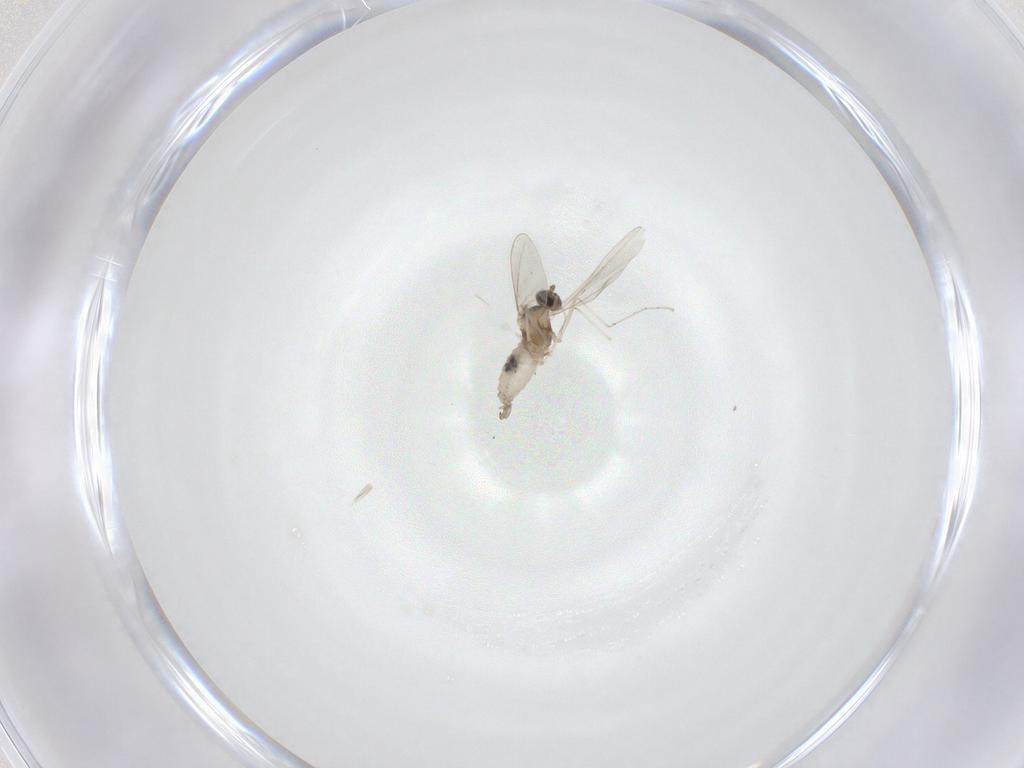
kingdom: Animalia
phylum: Arthropoda
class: Insecta
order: Diptera
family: Cecidomyiidae
